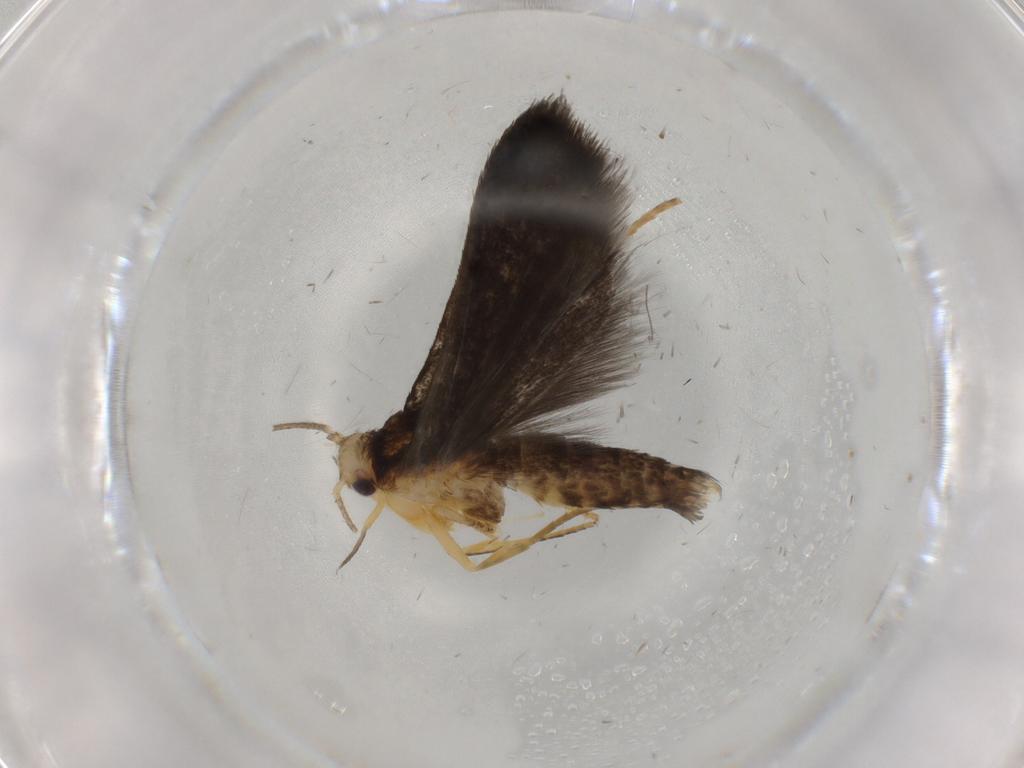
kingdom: Animalia
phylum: Arthropoda
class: Insecta
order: Lepidoptera
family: Yponomeutidae
